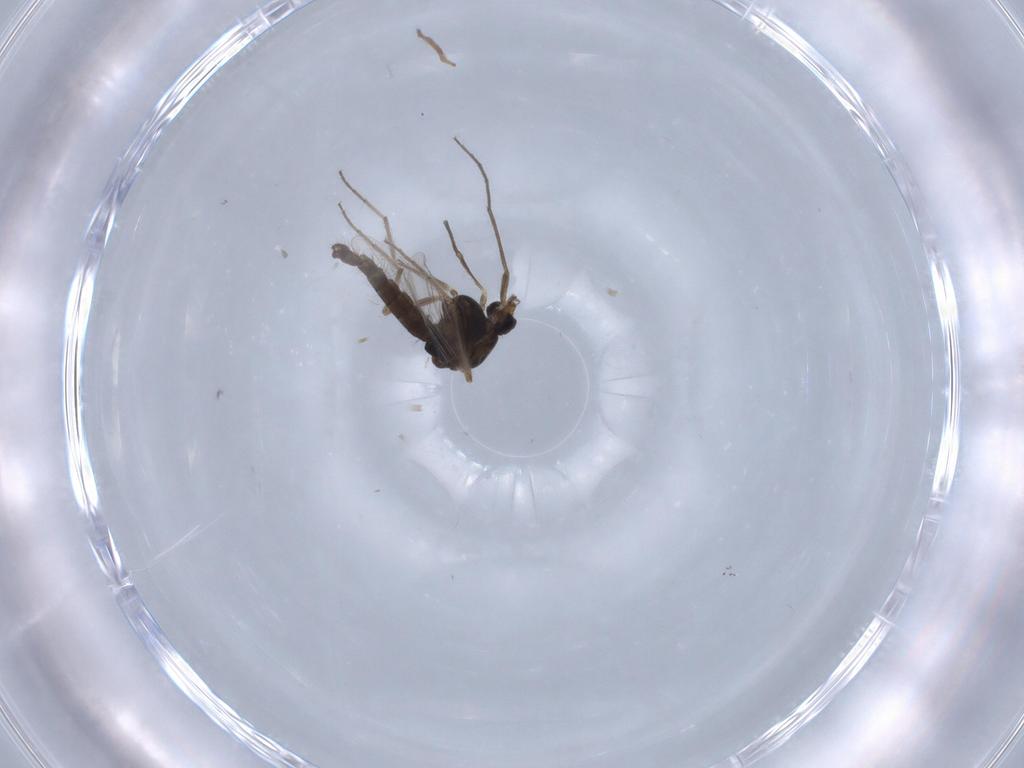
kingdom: Animalia
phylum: Arthropoda
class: Insecta
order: Diptera
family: Chironomidae
